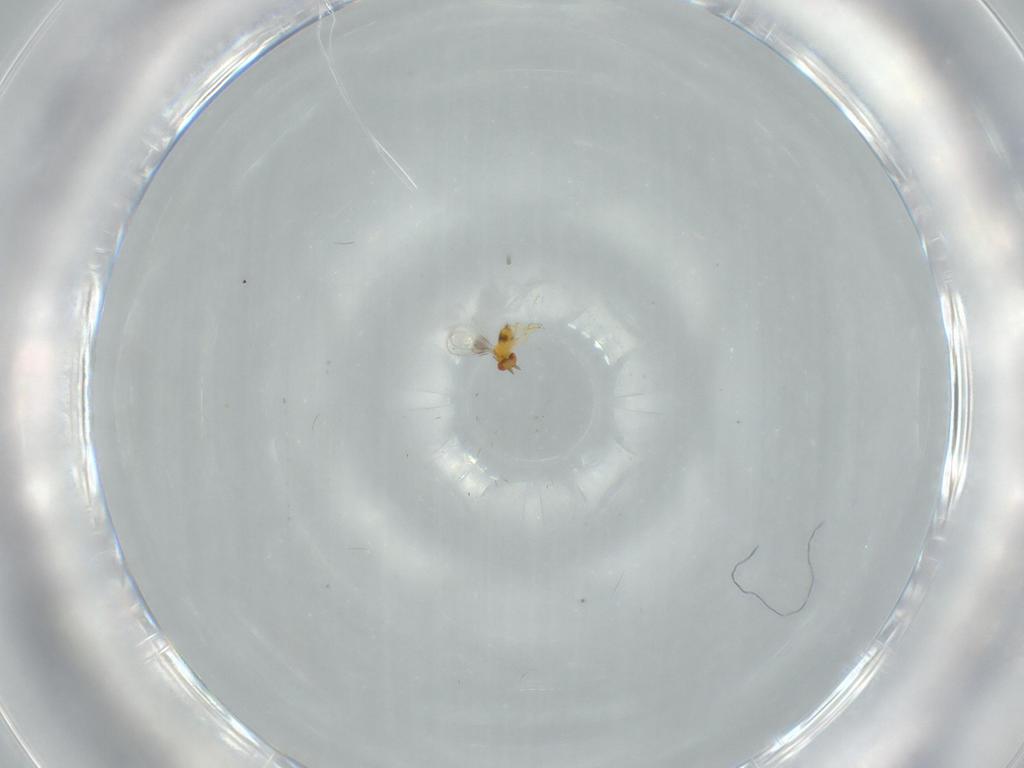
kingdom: Animalia
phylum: Arthropoda
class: Insecta
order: Hymenoptera
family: Trichogrammatidae
